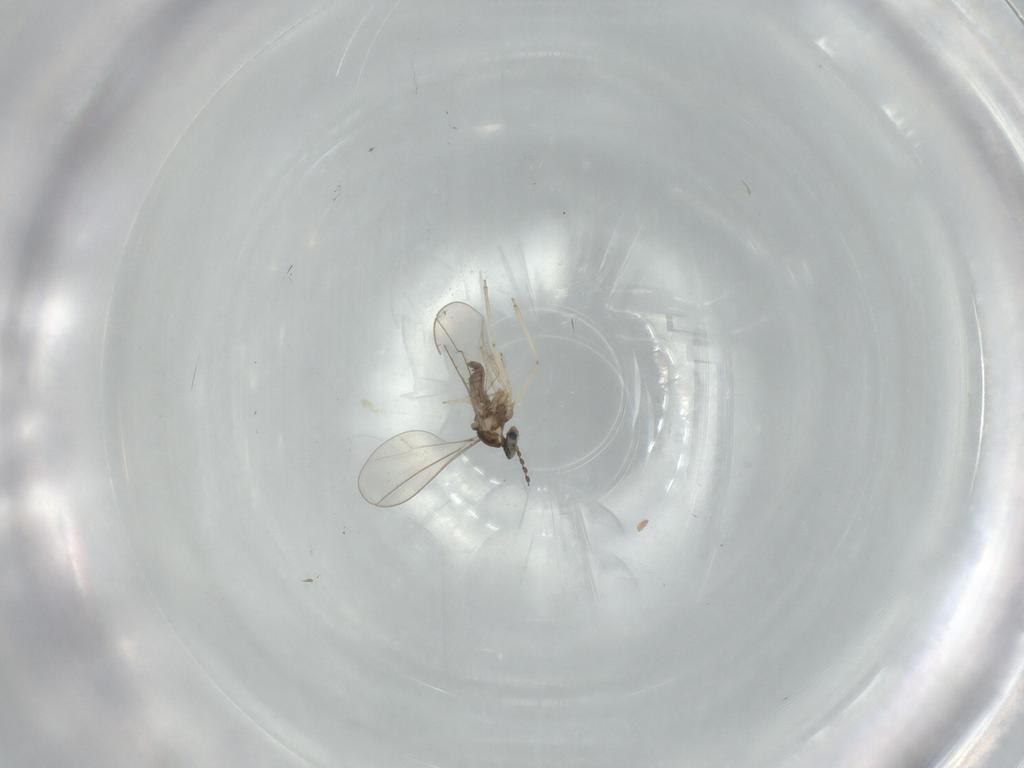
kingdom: Animalia
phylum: Arthropoda
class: Insecta
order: Diptera
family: Cecidomyiidae
